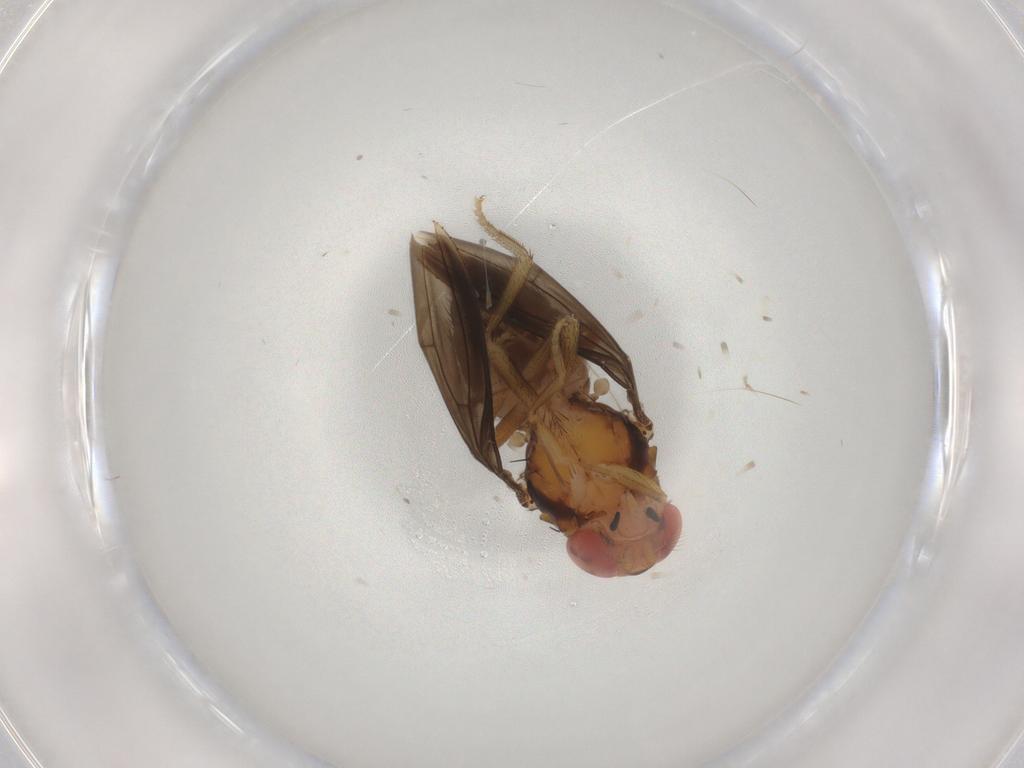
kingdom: Animalia
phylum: Arthropoda
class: Insecta
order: Diptera
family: Drosophilidae
